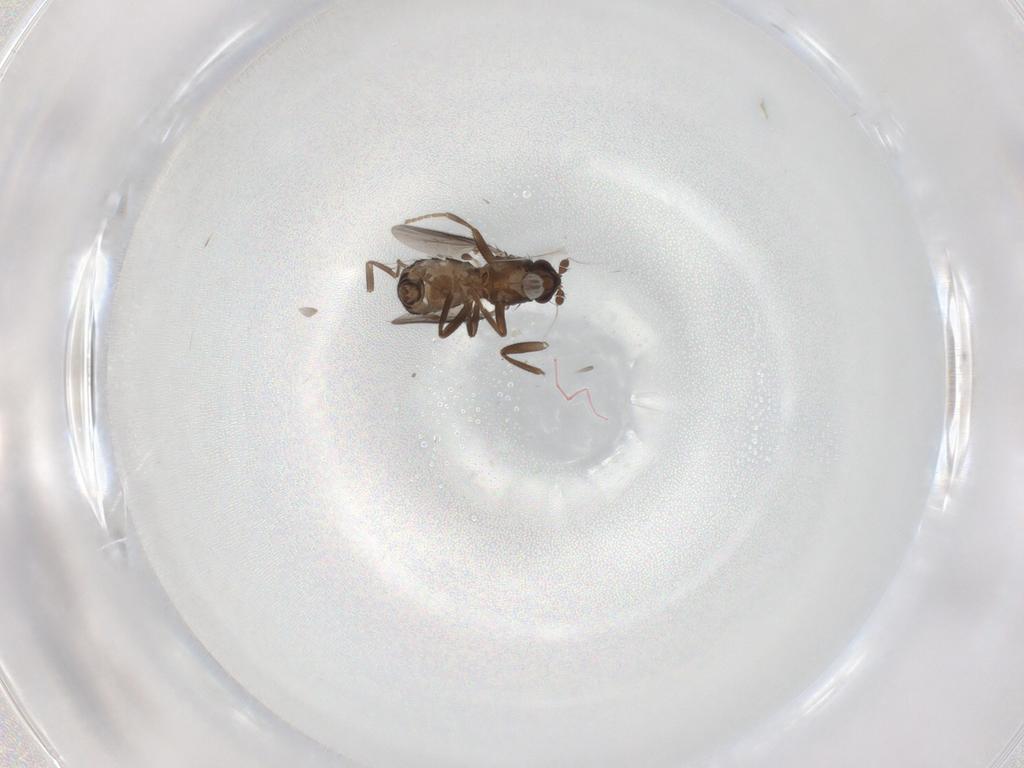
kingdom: Animalia
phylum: Arthropoda
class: Insecta
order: Diptera
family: Sphaeroceridae
